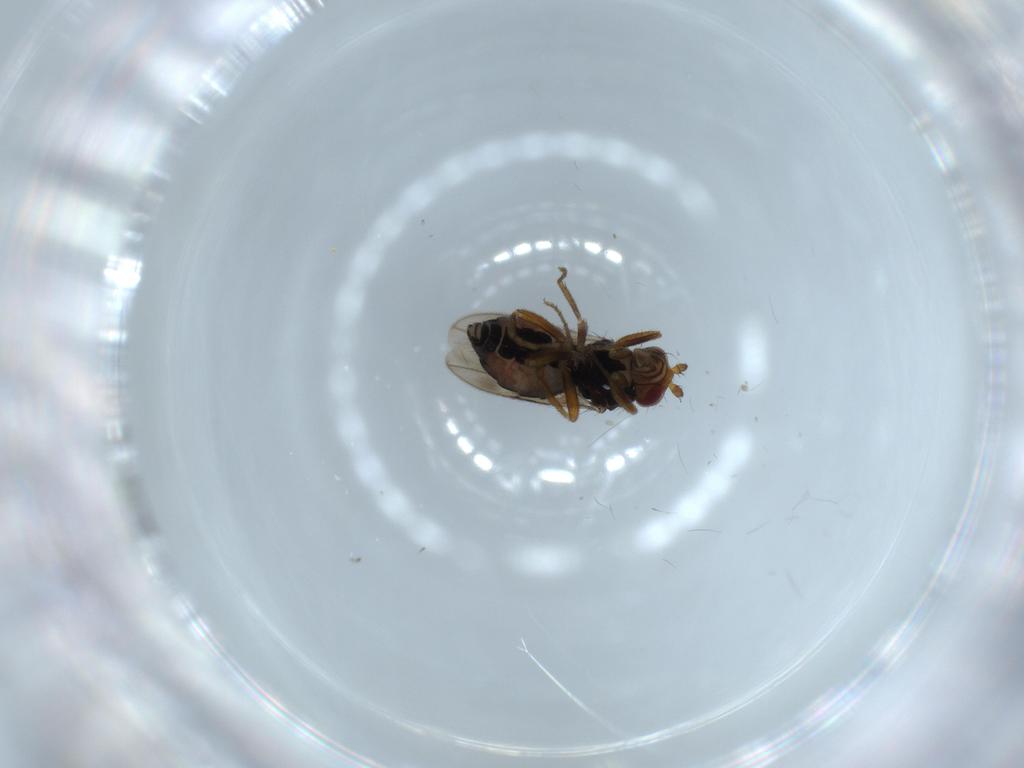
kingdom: Animalia
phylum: Arthropoda
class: Insecta
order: Diptera
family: Sphaeroceridae
